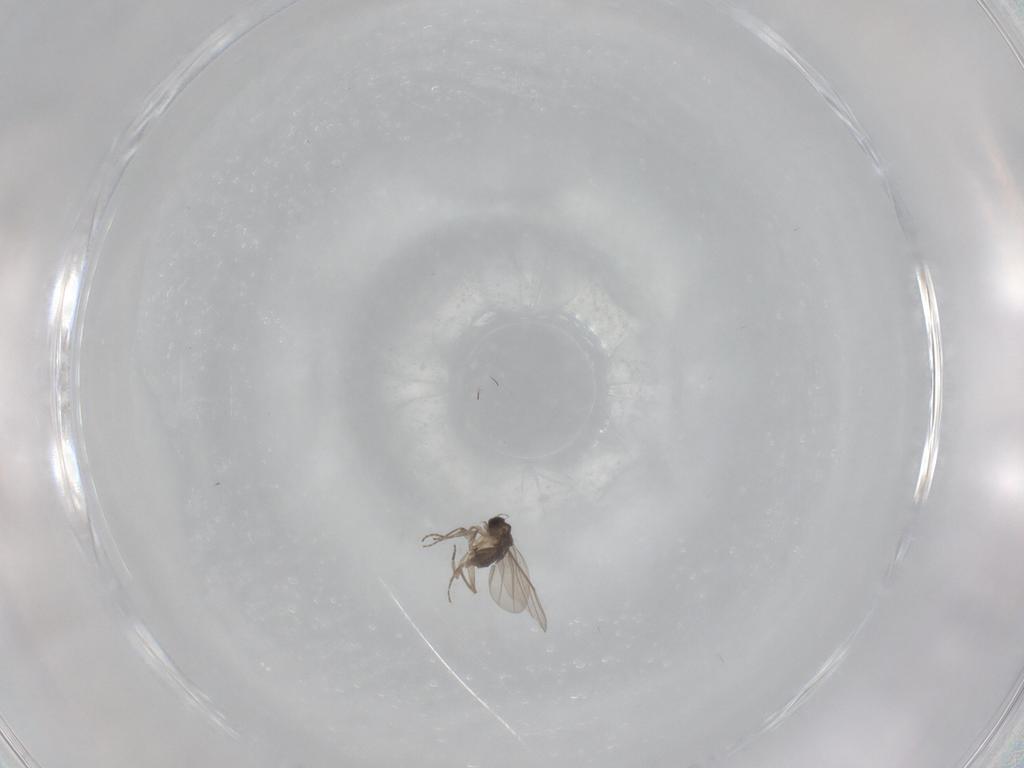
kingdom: Animalia
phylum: Arthropoda
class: Insecta
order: Diptera
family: Phoridae
